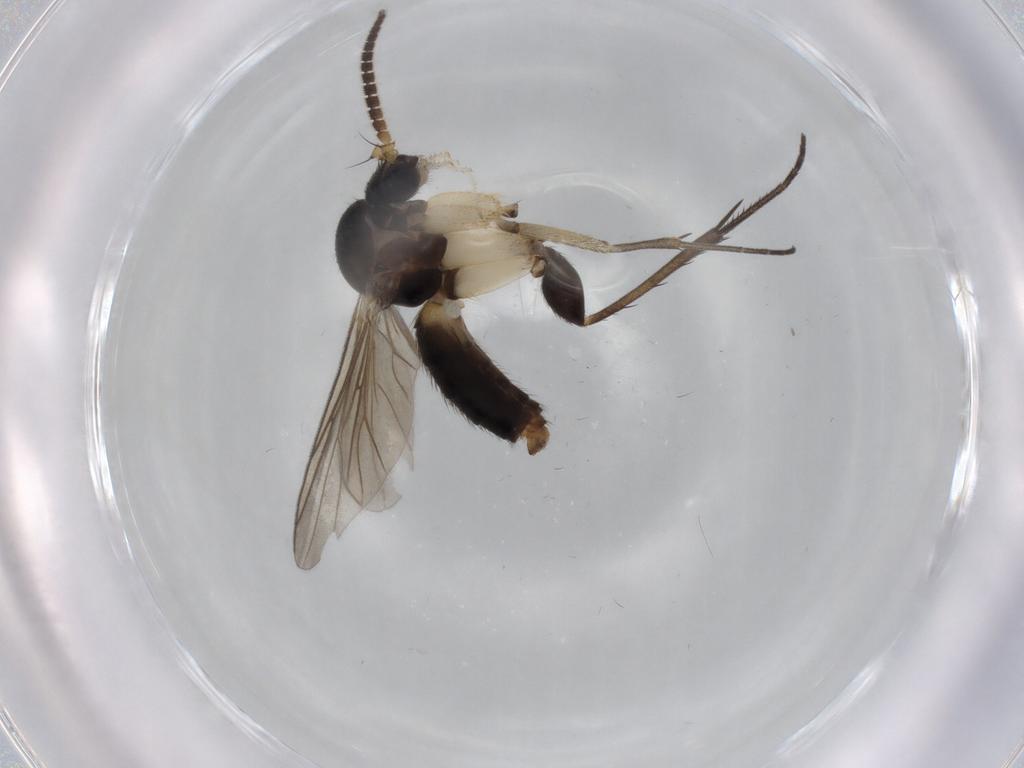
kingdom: Animalia
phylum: Arthropoda
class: Insecta
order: Diptera
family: Mycetophilidae
